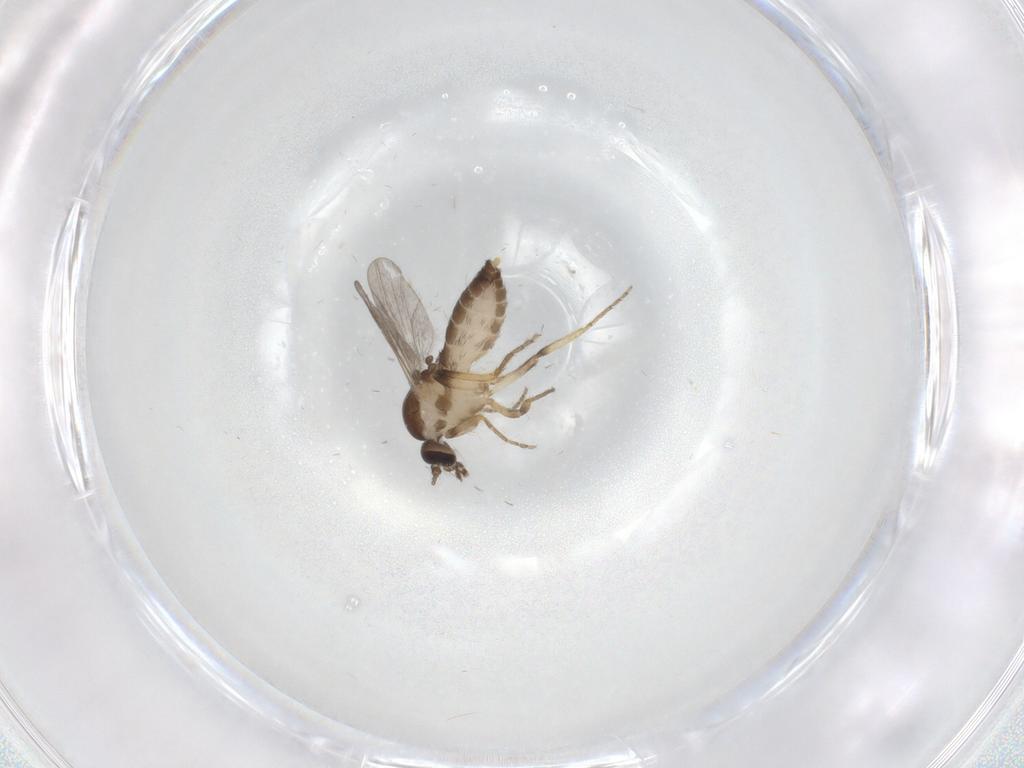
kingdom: Animalia
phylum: Arthropoda
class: Insecta
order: Diptera
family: Ceratopogonidae
